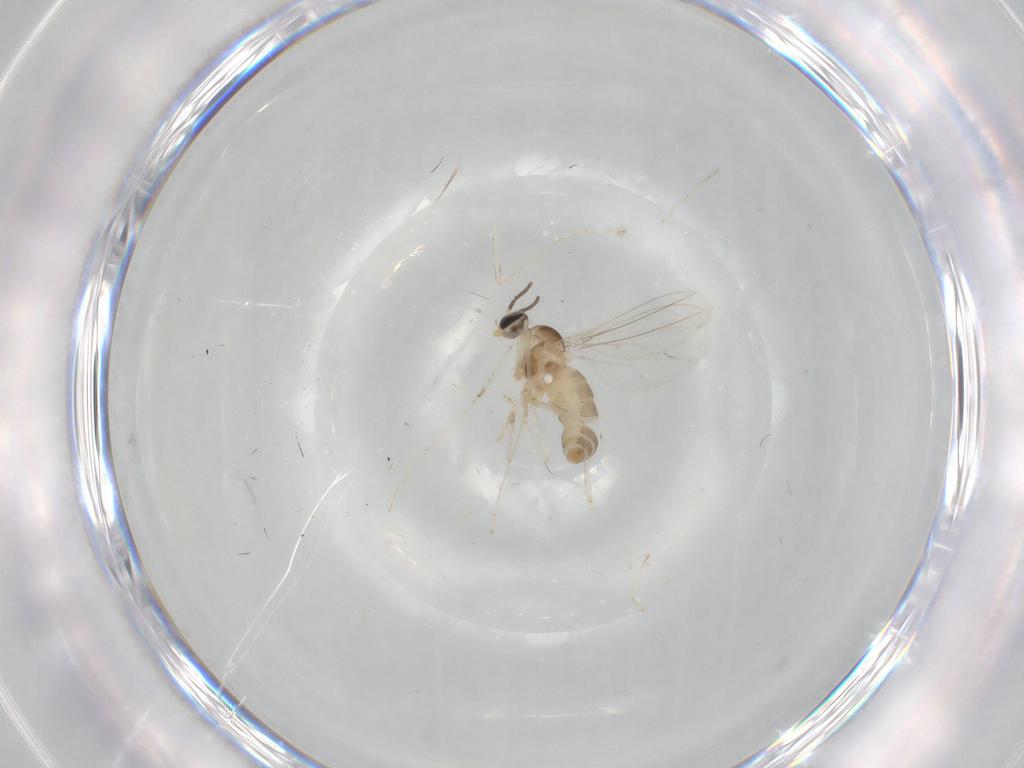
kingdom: Animalia
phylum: Arthropoda
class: Insecta
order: Diptera
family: Cecidomyiidae
